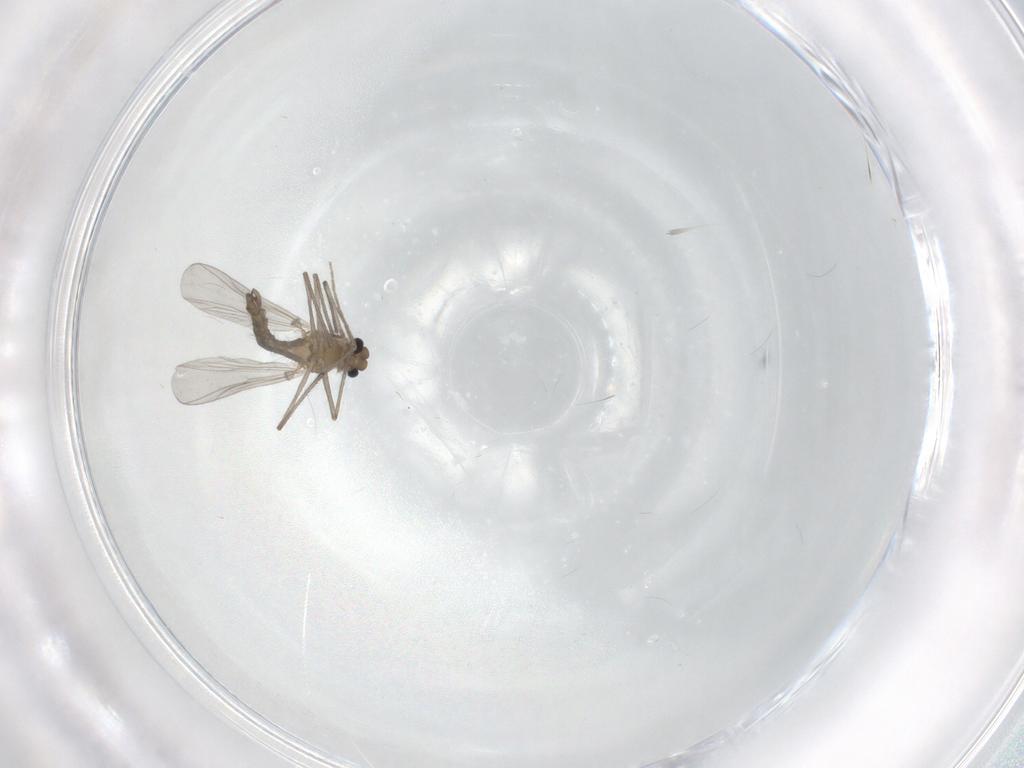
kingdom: Animalia
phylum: Arthropoda
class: Insecta
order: Diptera
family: Chironomidae
